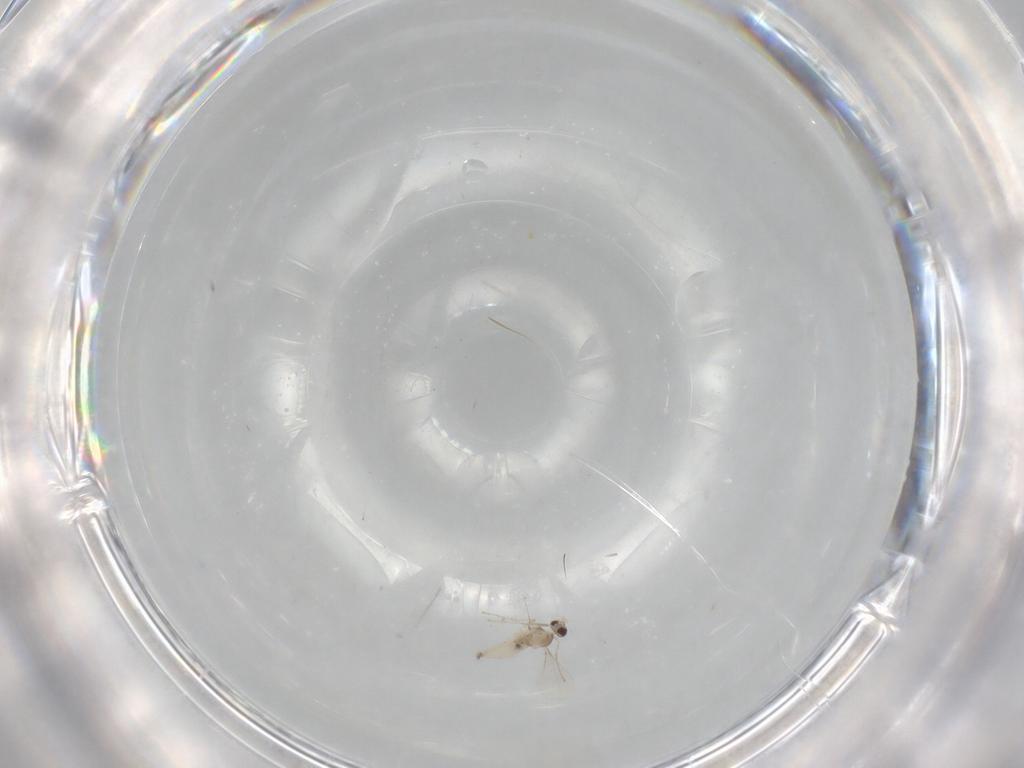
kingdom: Animalia
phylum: Arthropoda
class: Insecta
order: Diptera
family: Cecidomyiidae
